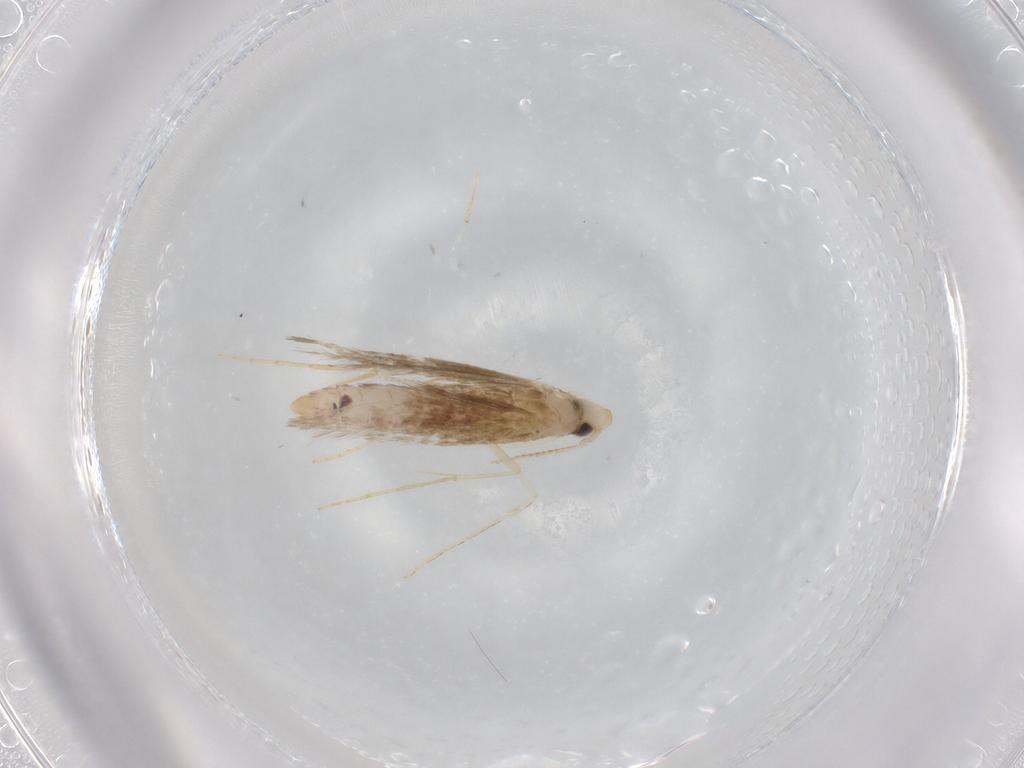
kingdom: Animalia
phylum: Arthropoda
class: Insecta
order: Lepidoptera
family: Psychidae
